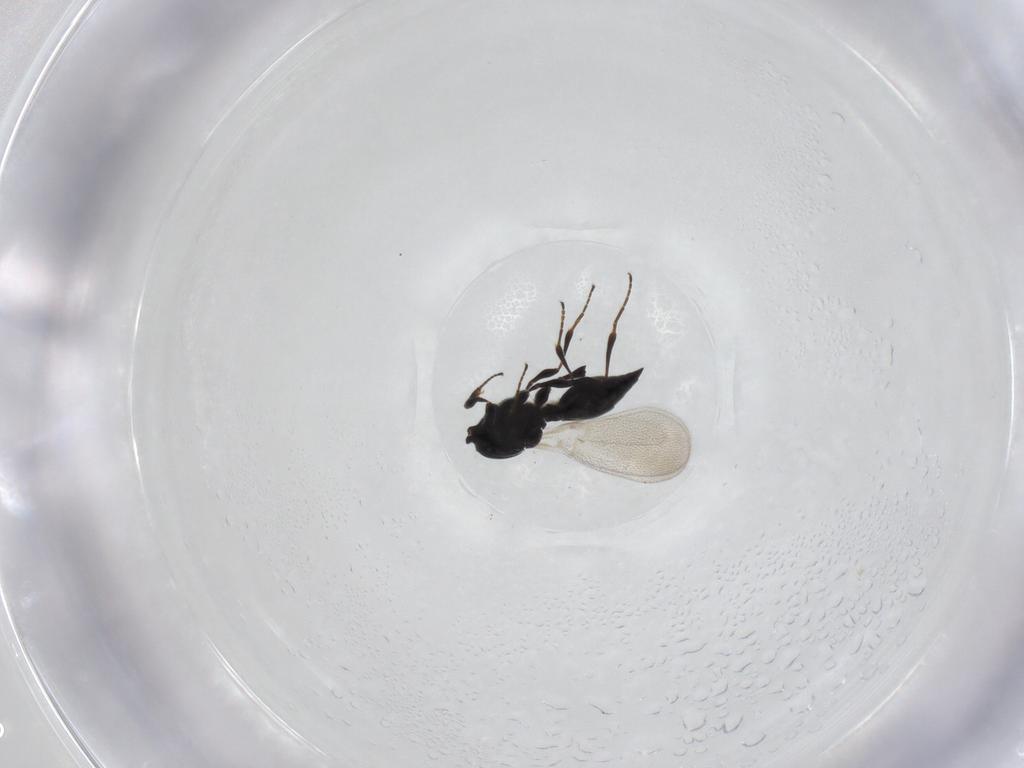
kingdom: Animalia
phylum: Arthropoda
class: Insecta
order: Hymenoptera
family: Platygastridae
